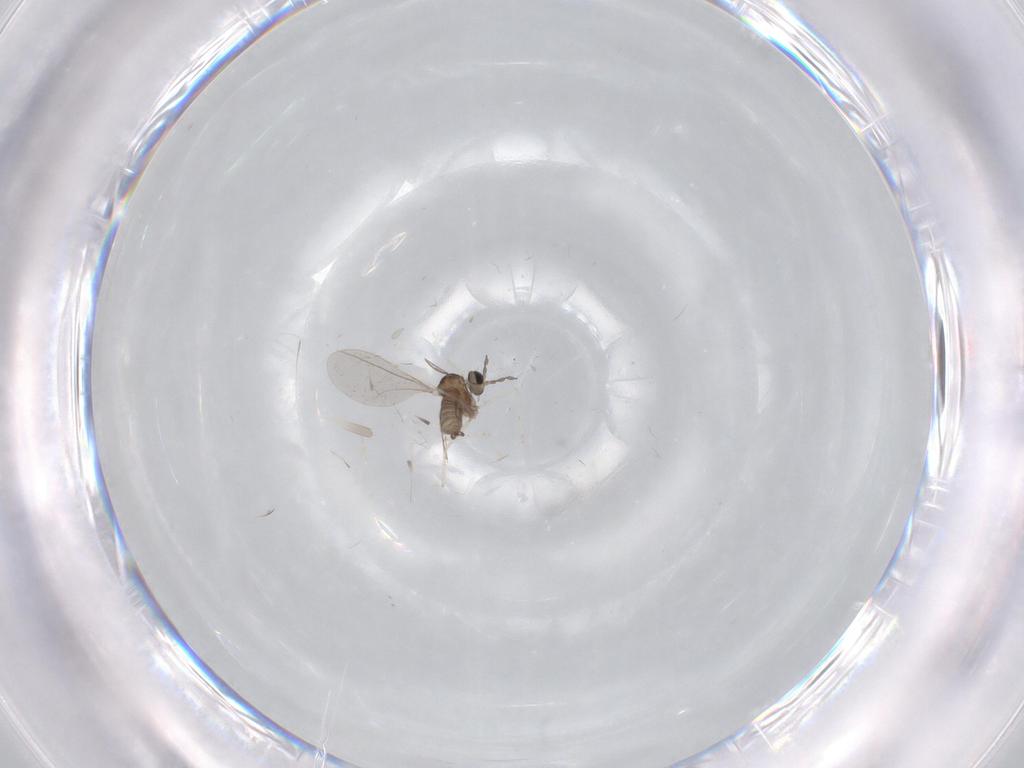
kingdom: Animalia
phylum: Arthropoda
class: Insecta
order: Diptera
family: Cecidomyiidae
